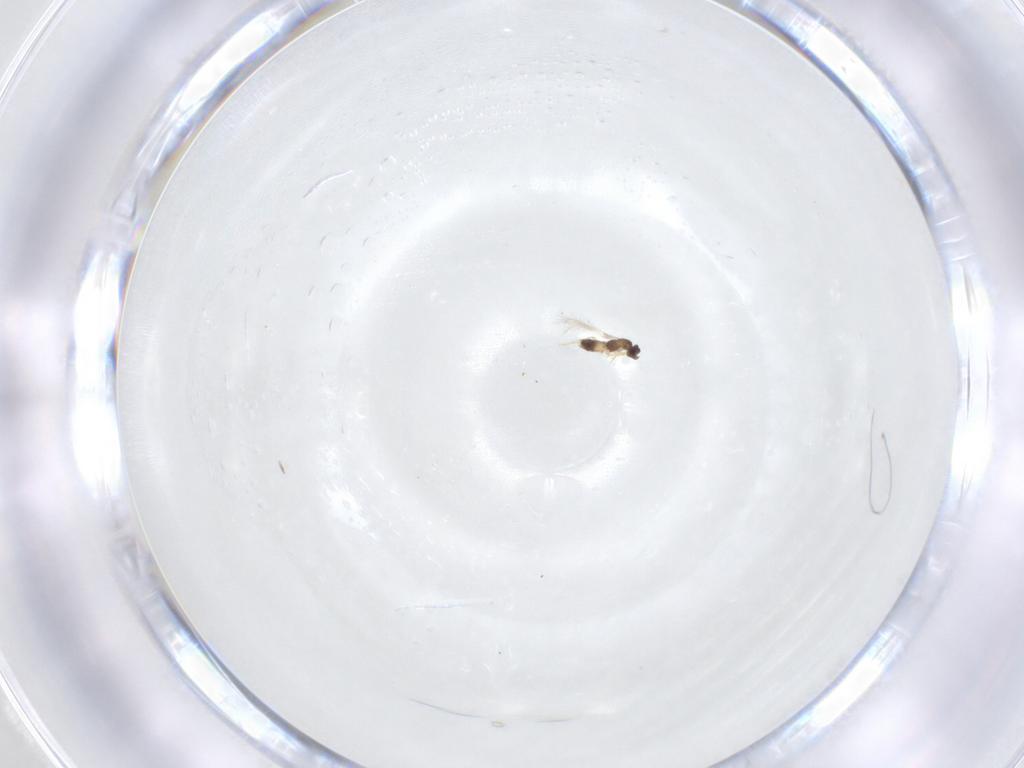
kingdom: Animalia
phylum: Arthropoda
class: Insecta
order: Hymenoptera
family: Mymaridae
